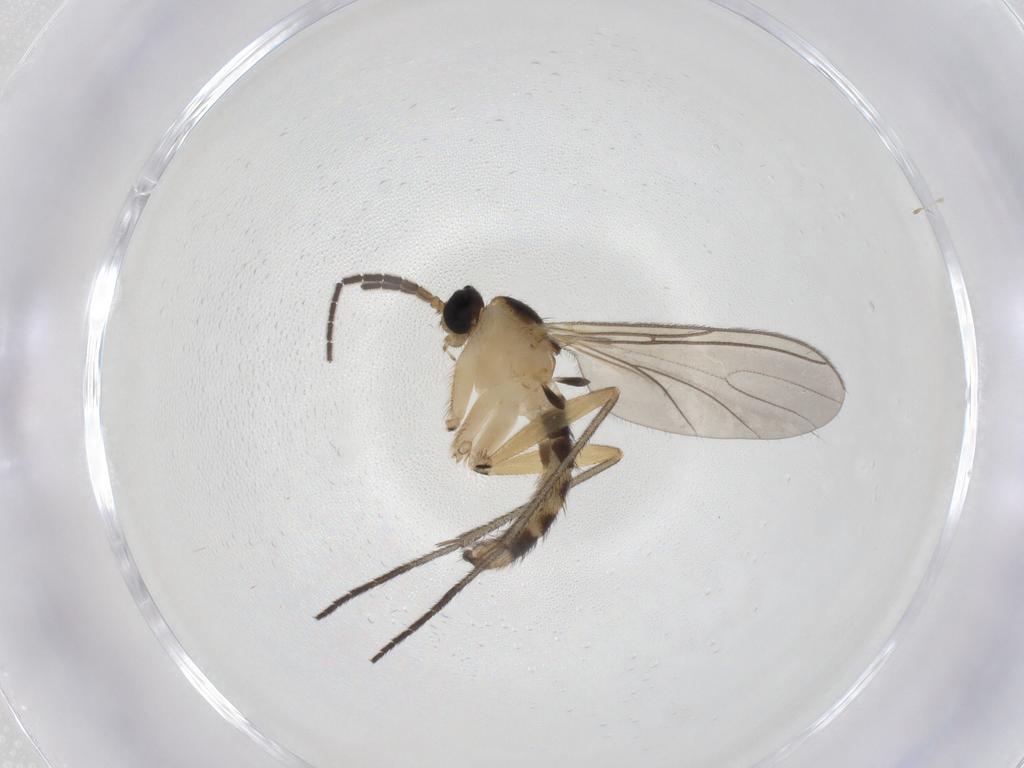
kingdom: Animalia
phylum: Arthropoda
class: Insecta
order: Diptera
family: Sciaridae
